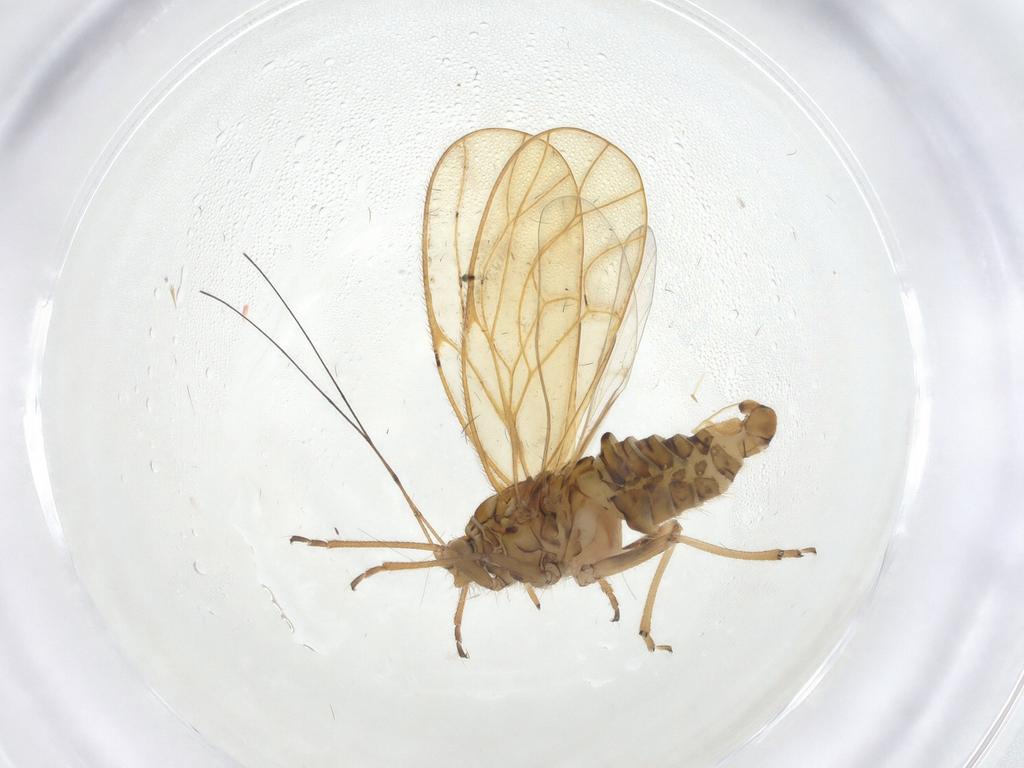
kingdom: Animalia
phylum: Arthropoda
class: Insecta
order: Hemiptera
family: Psyllidae
